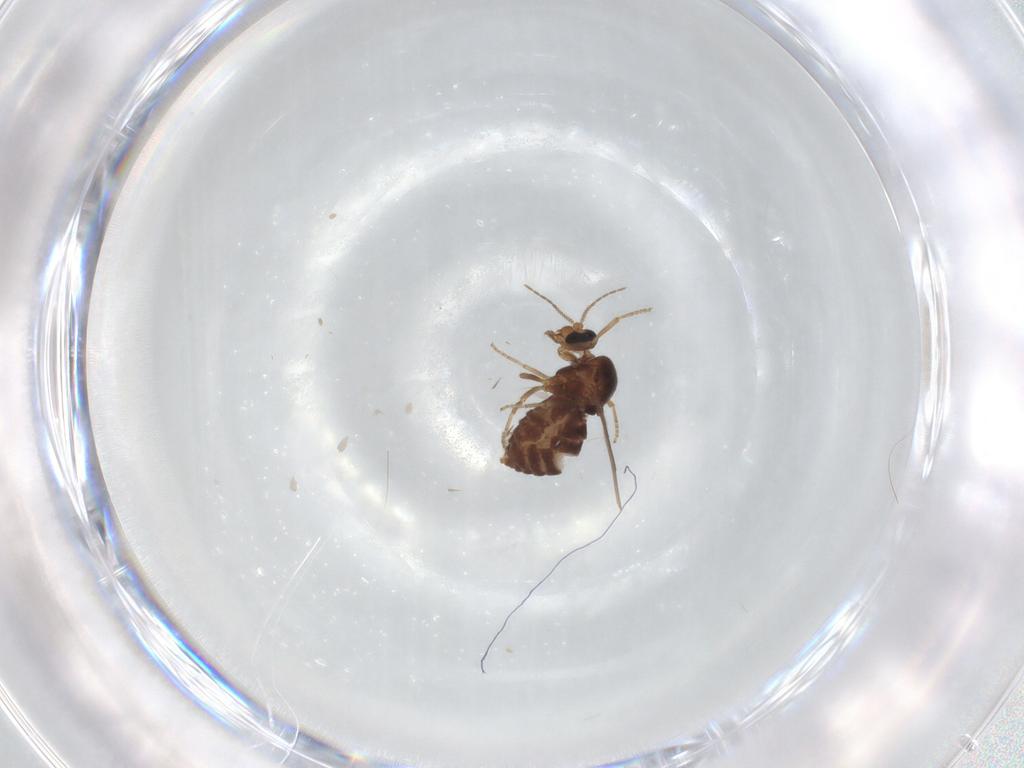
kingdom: Animalia
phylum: Arthropoda
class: Insecta
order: Diptera
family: Ceratopogonidae
